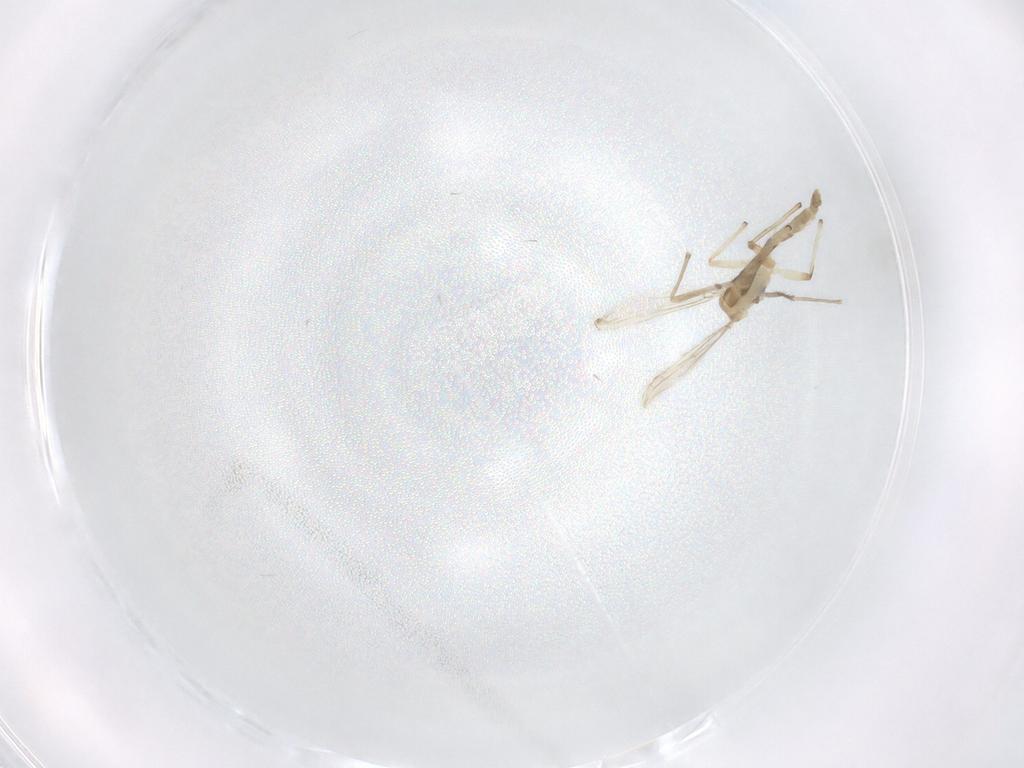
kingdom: Animalia
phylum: Arthropoda
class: Insecta
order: Diptera
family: Chironomidae
